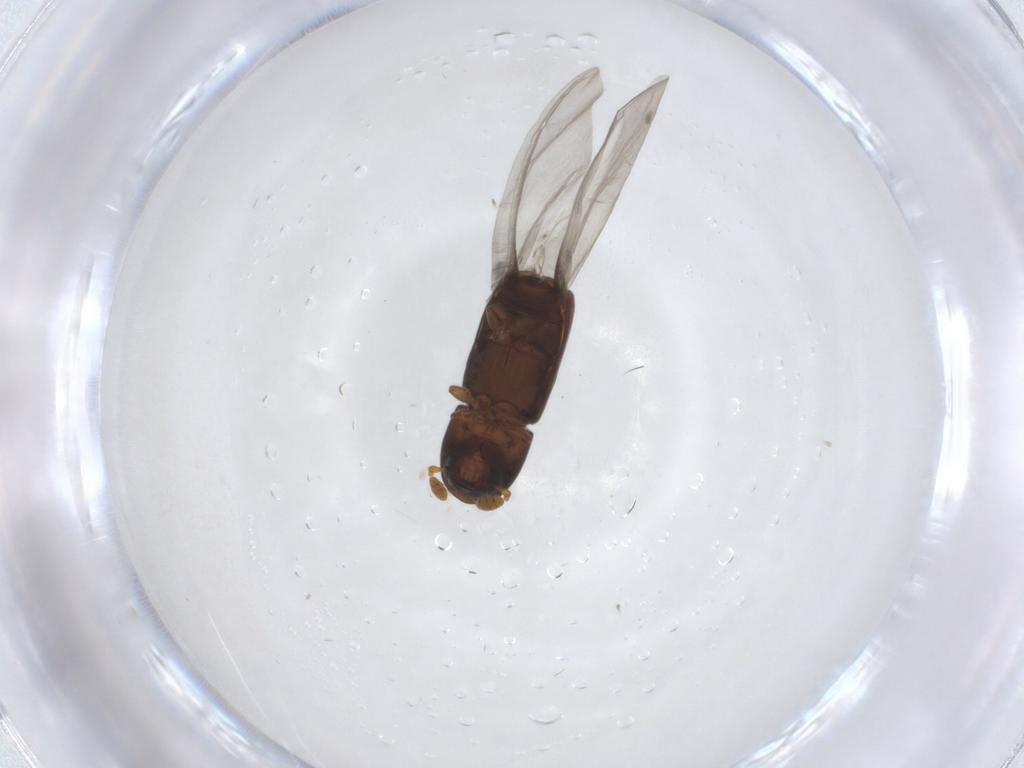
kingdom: Animalia
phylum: Arthropoda
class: Insecta
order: Coleoptera
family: Curculionidae
